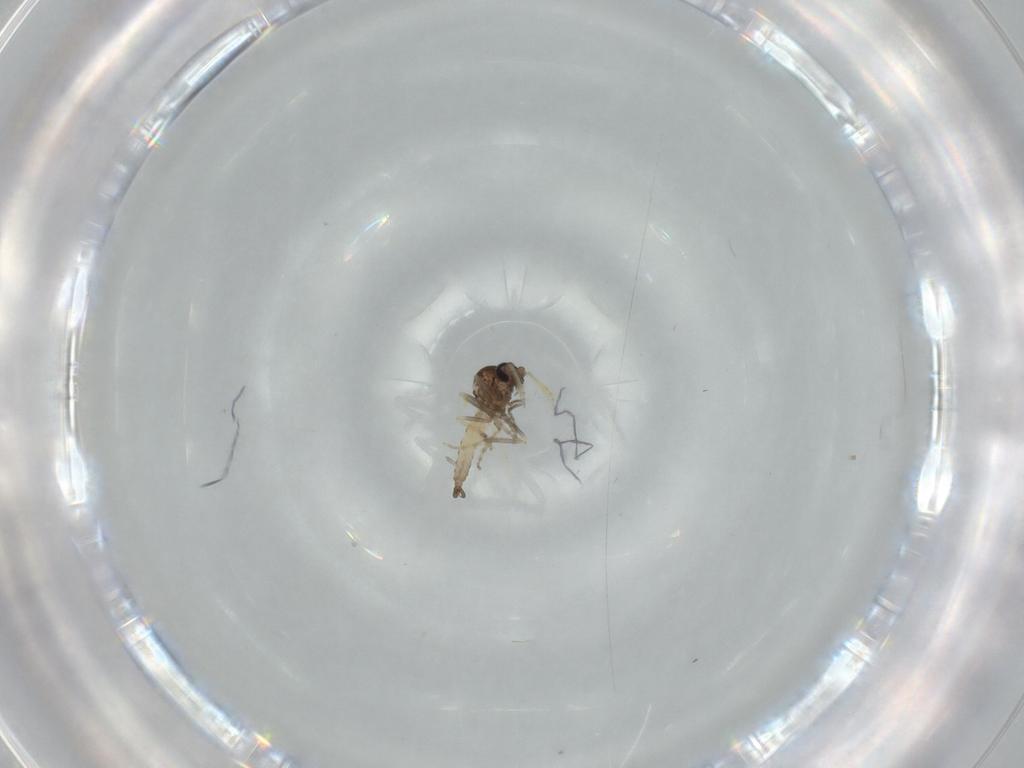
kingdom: Animalia
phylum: Arthropoda
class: Insecta
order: Diptera
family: Ceratopogonidae
